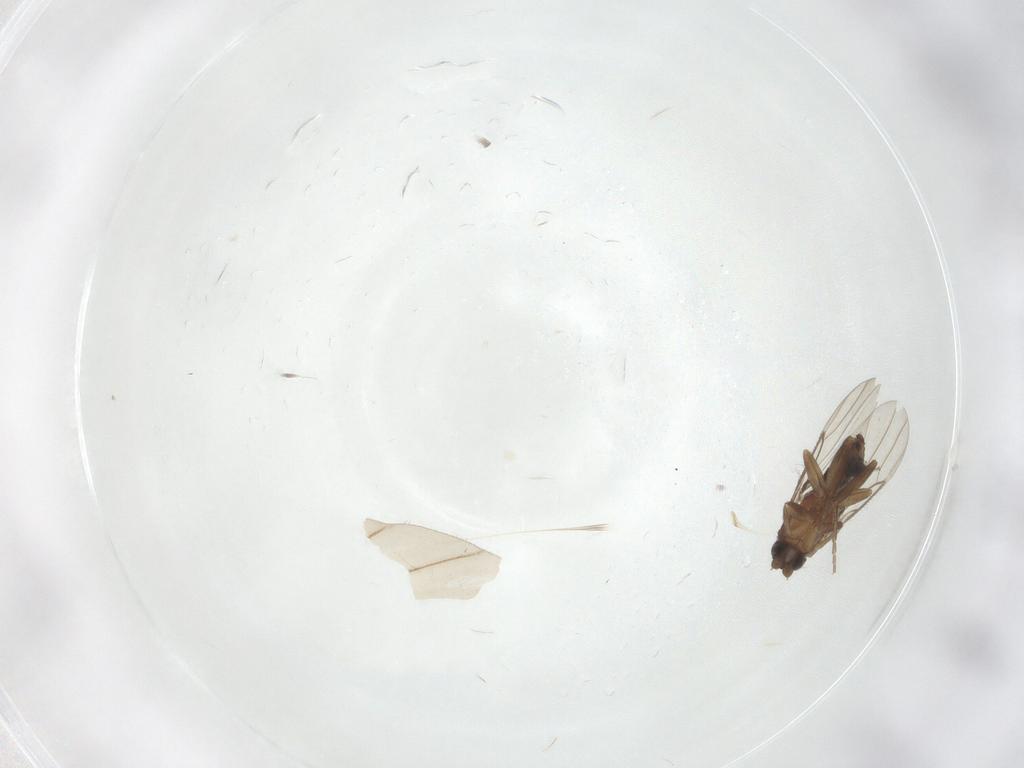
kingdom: Animalia
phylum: Arthropoda
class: Insecta
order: Diptera
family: Phoridae
